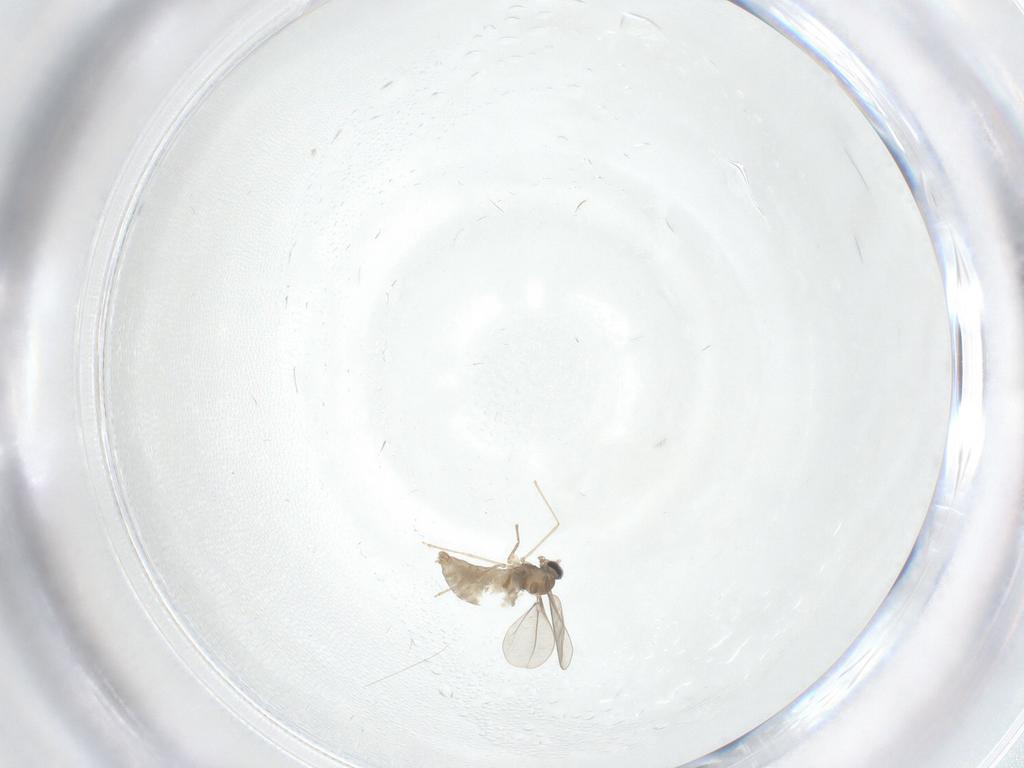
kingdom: Animalia
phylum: Arthropoda
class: Insecta
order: Diptera
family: Cecidomyiidae
